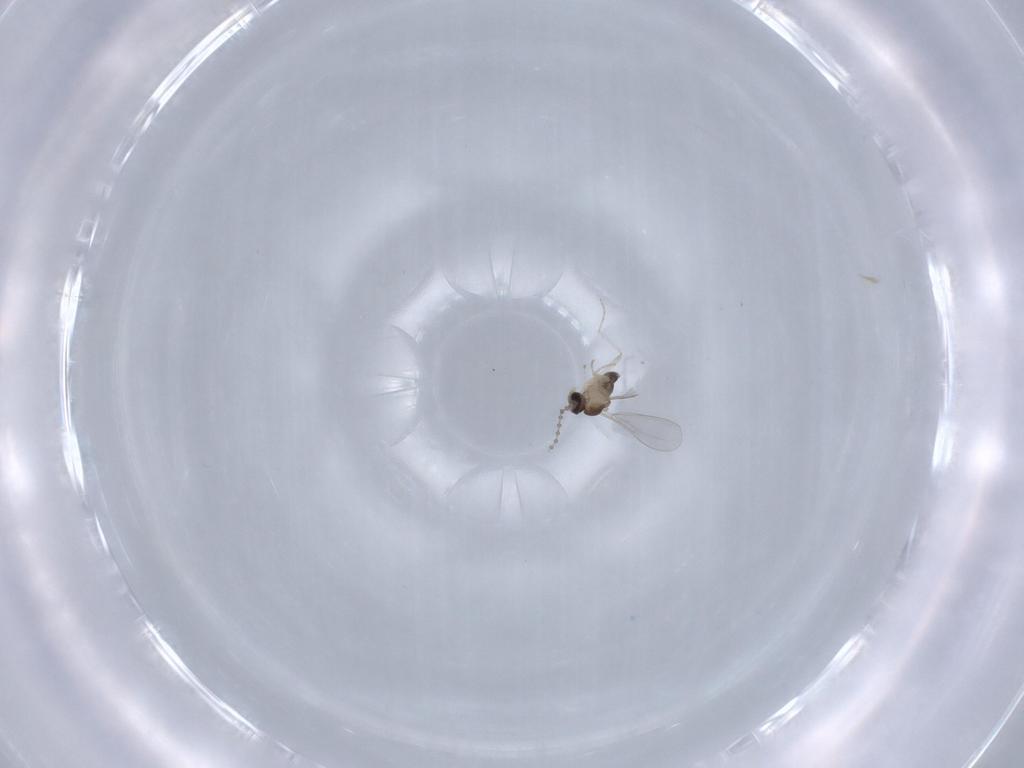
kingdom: Animalia
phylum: Arthropoda
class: Insecta
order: Diptera
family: Cecidomyiidae
